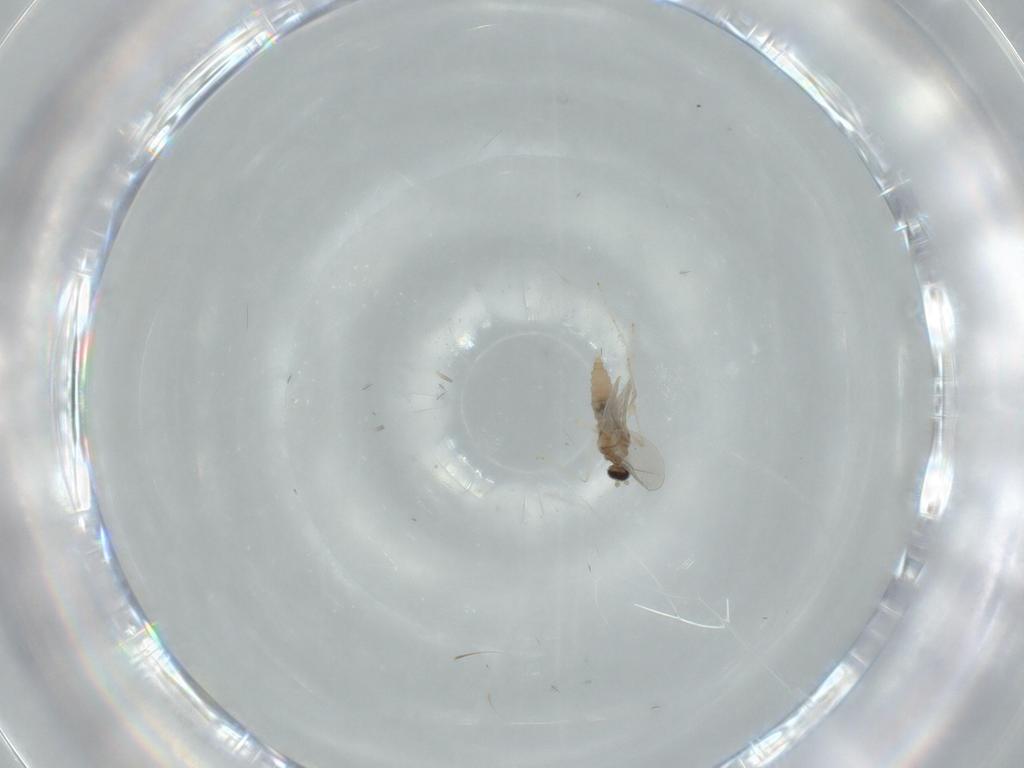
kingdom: Animalia
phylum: Arthropoda
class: Insecta
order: Diptera
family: Cecidomyiidae
